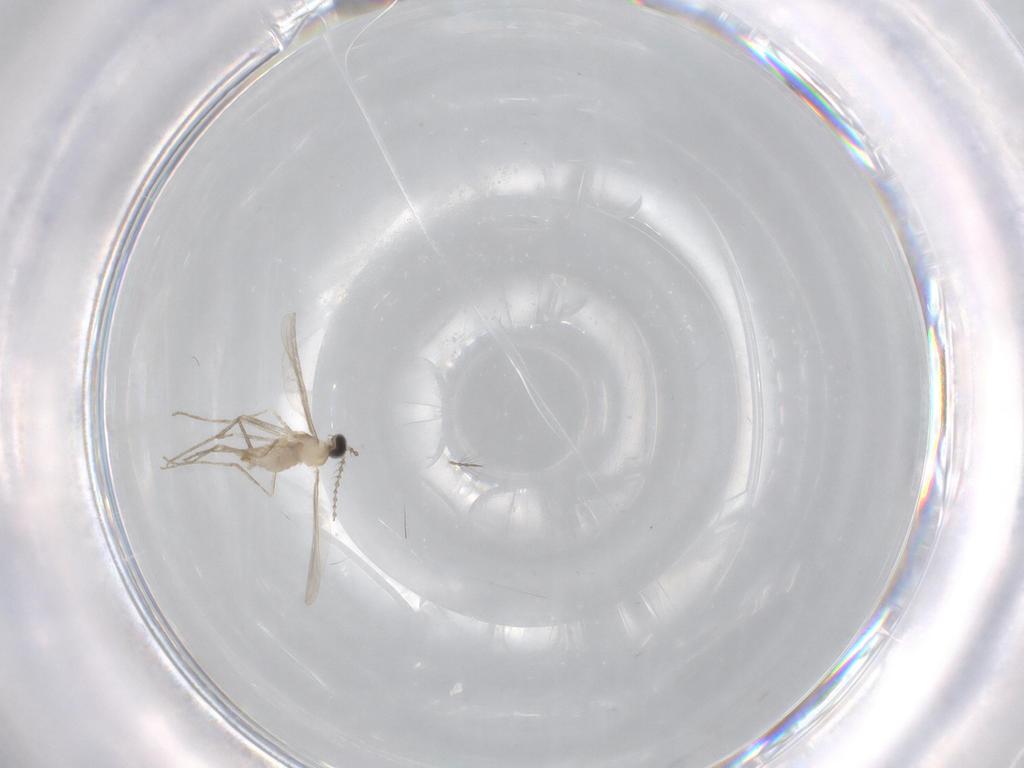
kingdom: Animalia
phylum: Arthropoda
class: Insecta
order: Diptera
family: Cecidomyiidae
